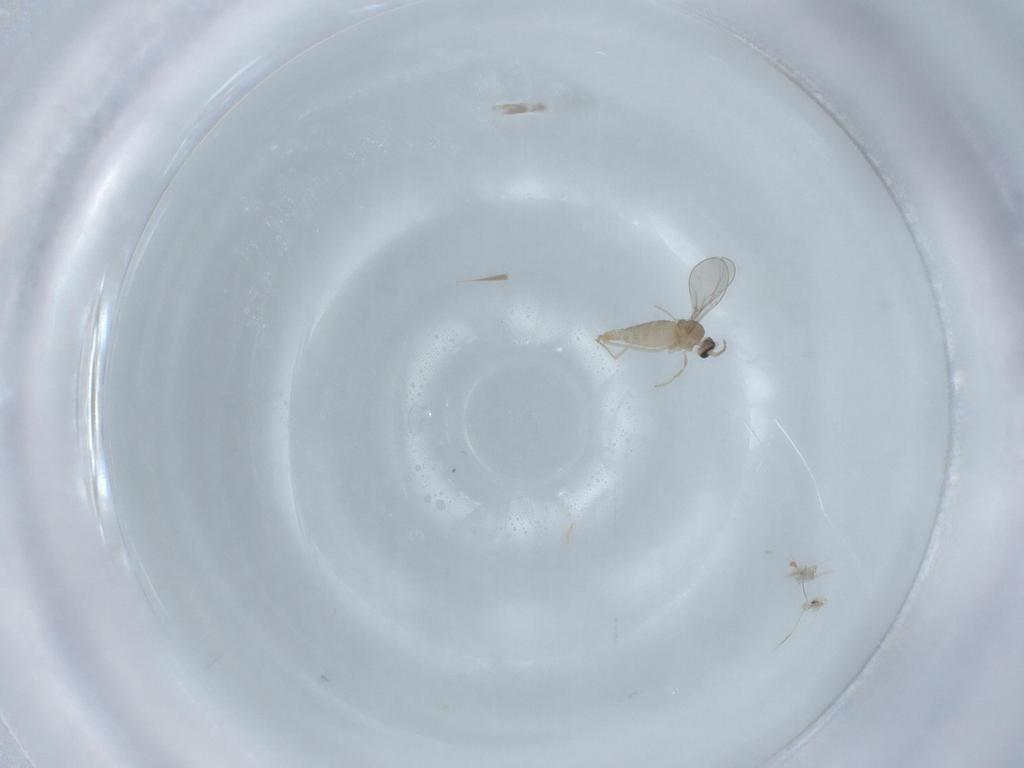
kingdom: Animalia
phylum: Arthropoda
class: Insecta
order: Diptera
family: Cecidomyiidae
